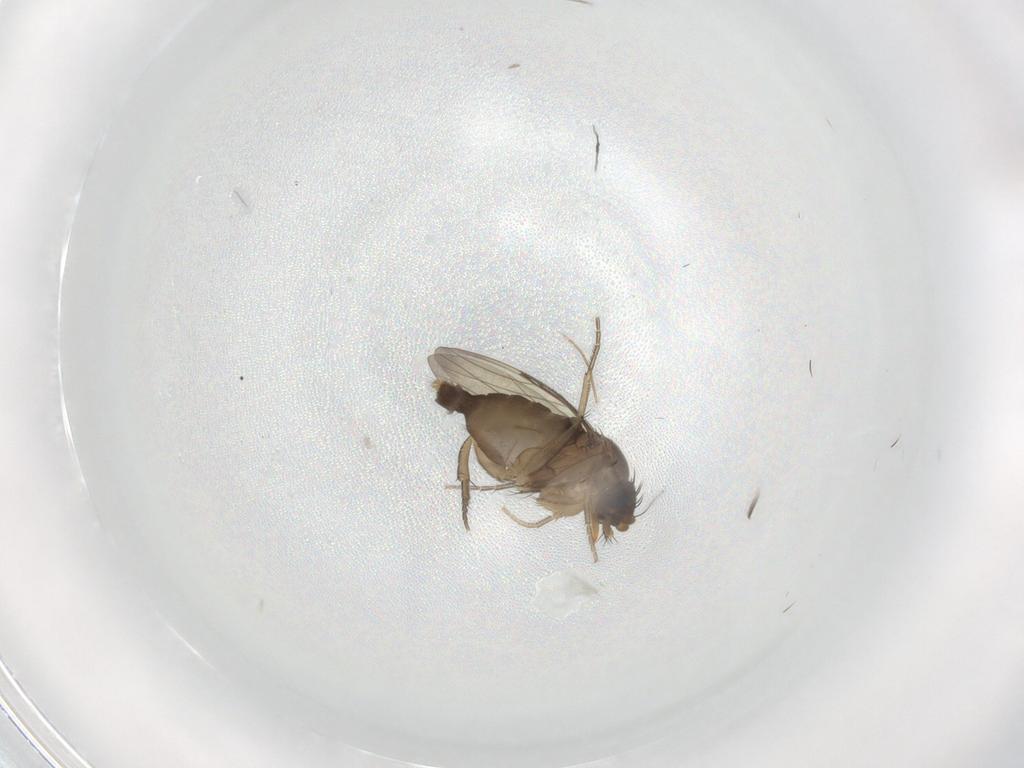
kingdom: Animalia
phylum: Arthropoda
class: Insecta
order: Diptera
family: Phoridae
